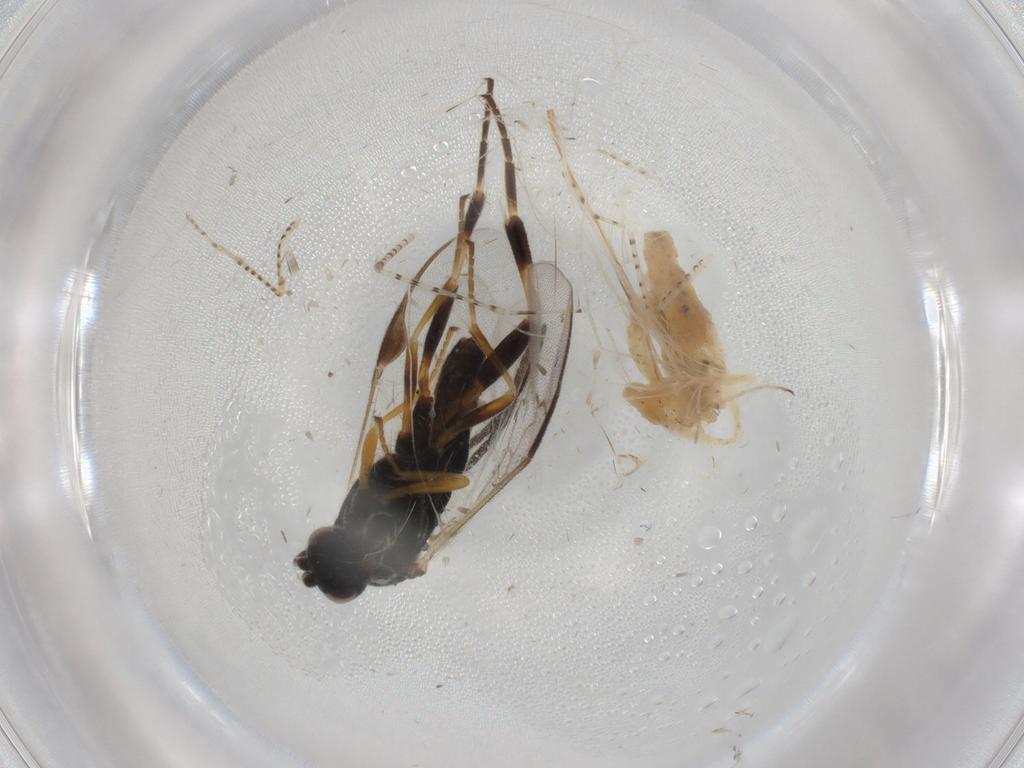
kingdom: Animalia
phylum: Arthropoda
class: Insecta
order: Hymenoptera
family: Braconidae
